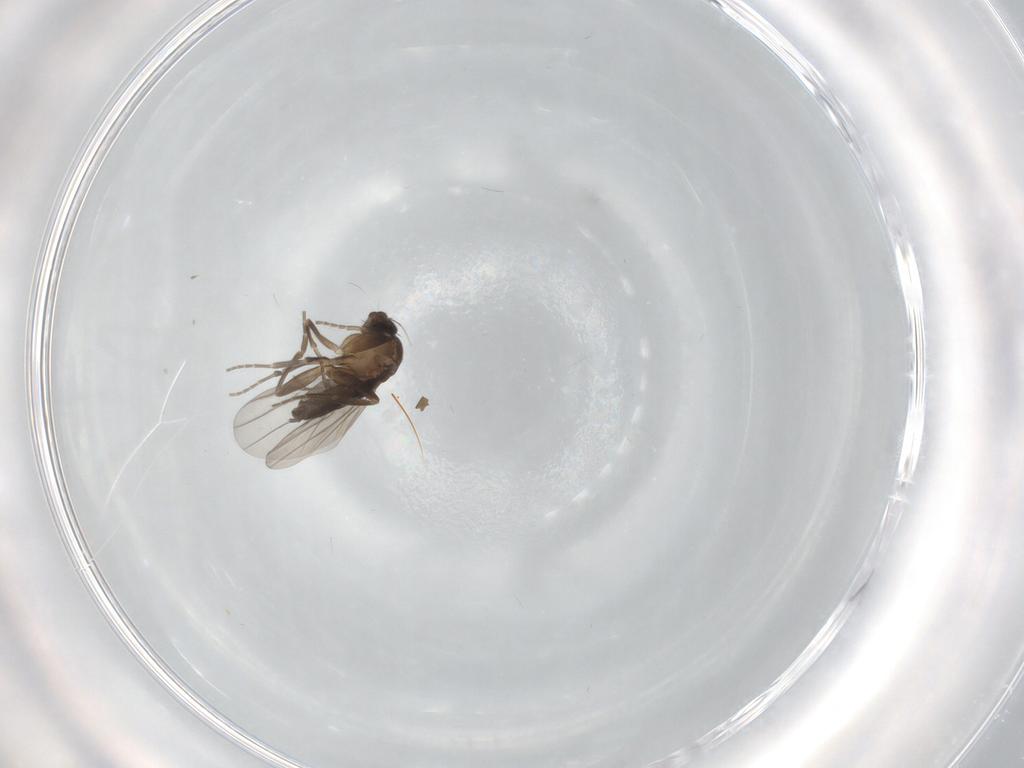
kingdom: Animalia
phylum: Arthropoda
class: Insecta
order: Diptera
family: Ceratopogonidae
